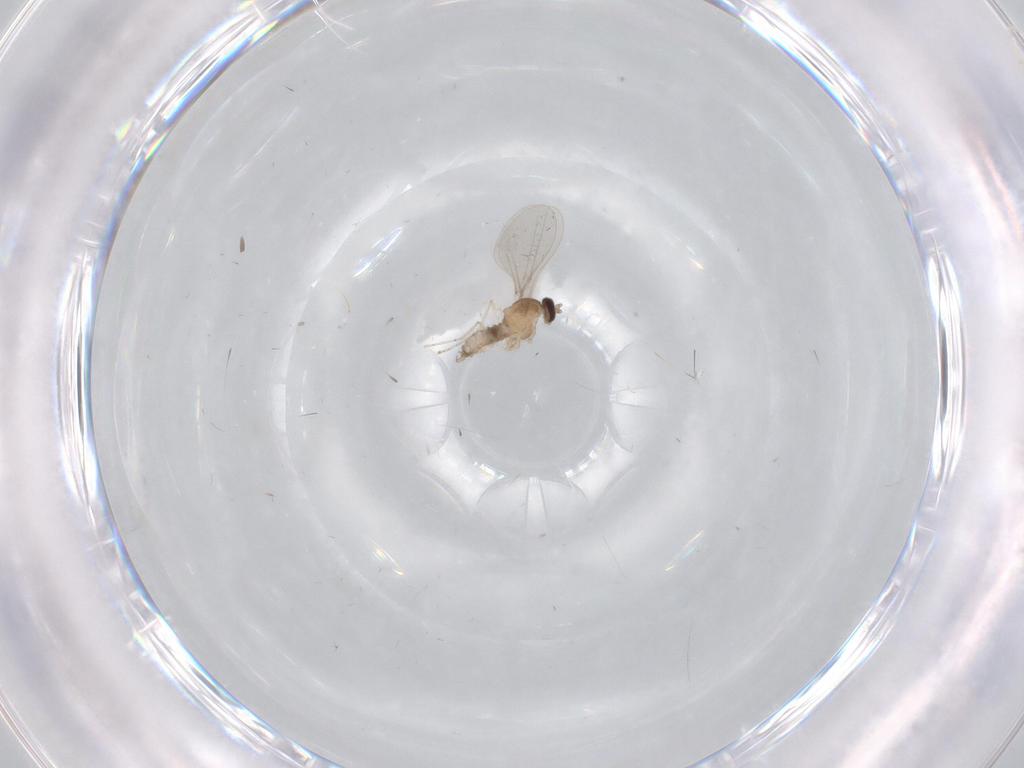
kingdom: Animalia
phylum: Arthropoda
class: Insecta
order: Diptera
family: Cecidomyiidae
